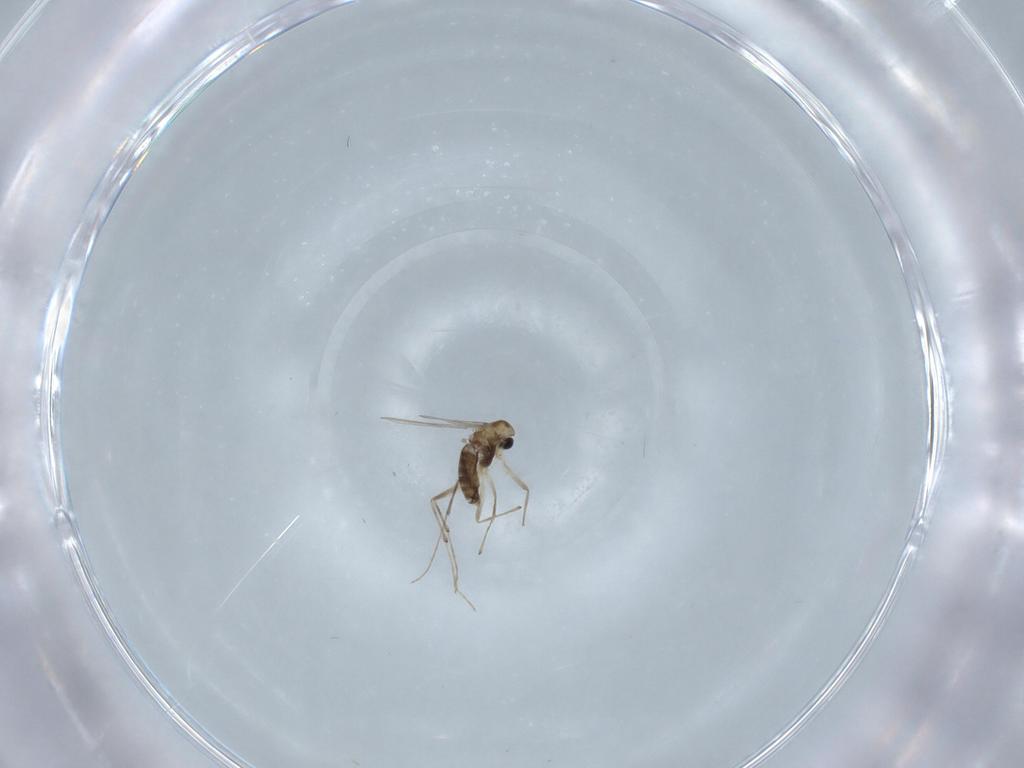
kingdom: Animalia
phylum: Arthropoda
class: Insecta
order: Diptera
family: Chironomidae
